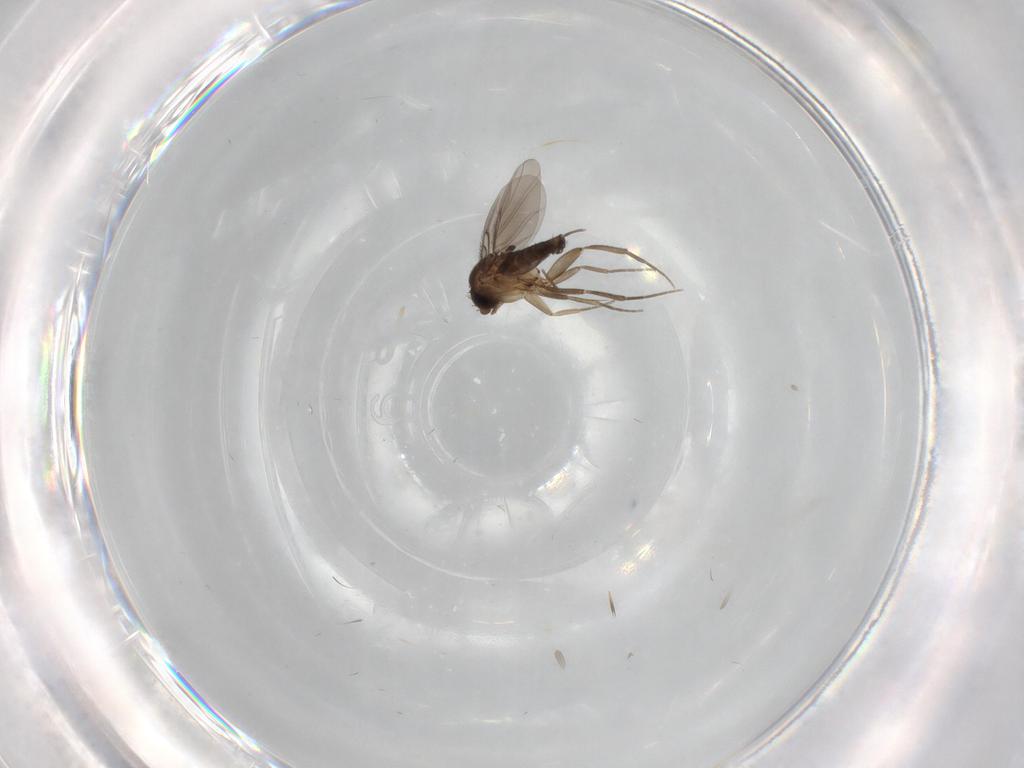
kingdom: Animalia
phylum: Arthropoda
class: Insecta
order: Diptera
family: Phoridae
